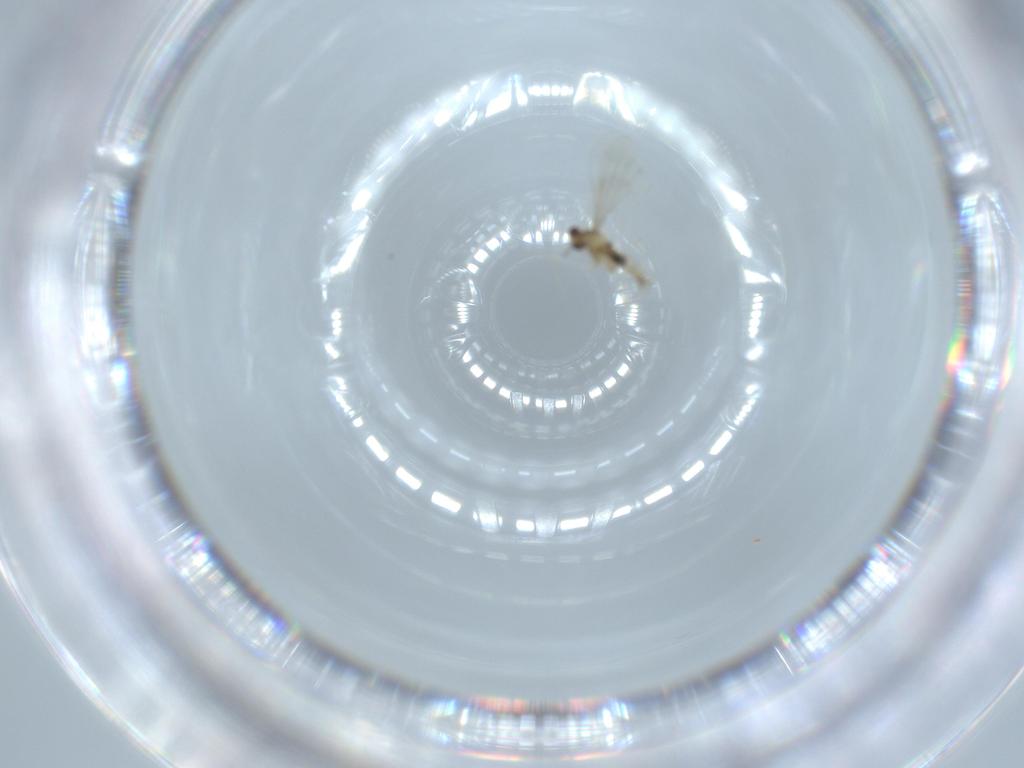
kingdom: Animalia
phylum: Arthropoda
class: Insecta
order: Diptera
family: Cecidomyiidae
